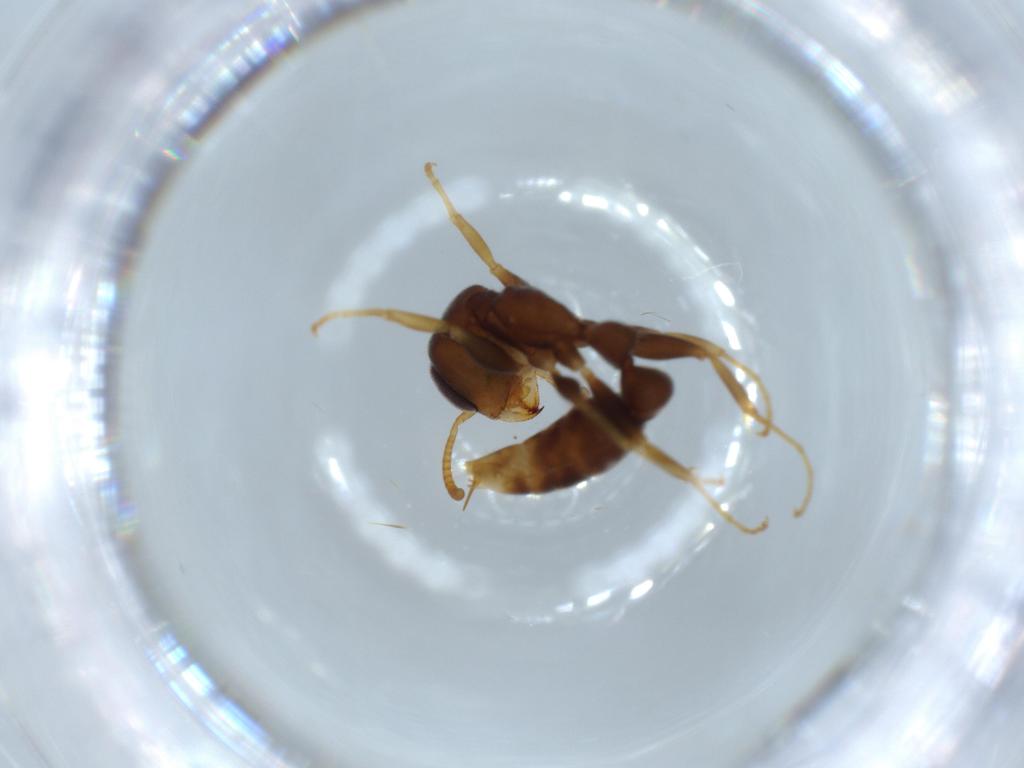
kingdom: Animalia
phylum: Arthropoda
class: Insecta
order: Hymenoptera
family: Formicidae
